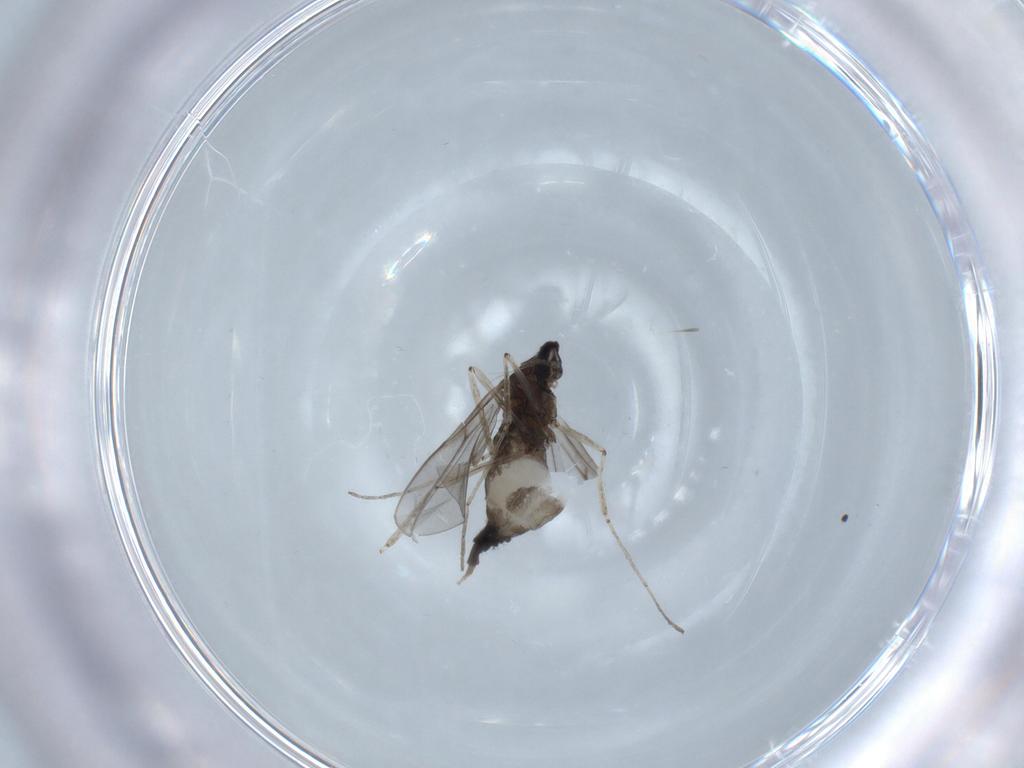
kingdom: Animalia
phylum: Arthropoda
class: Insecta
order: Diptera
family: Cecidomyiidae
